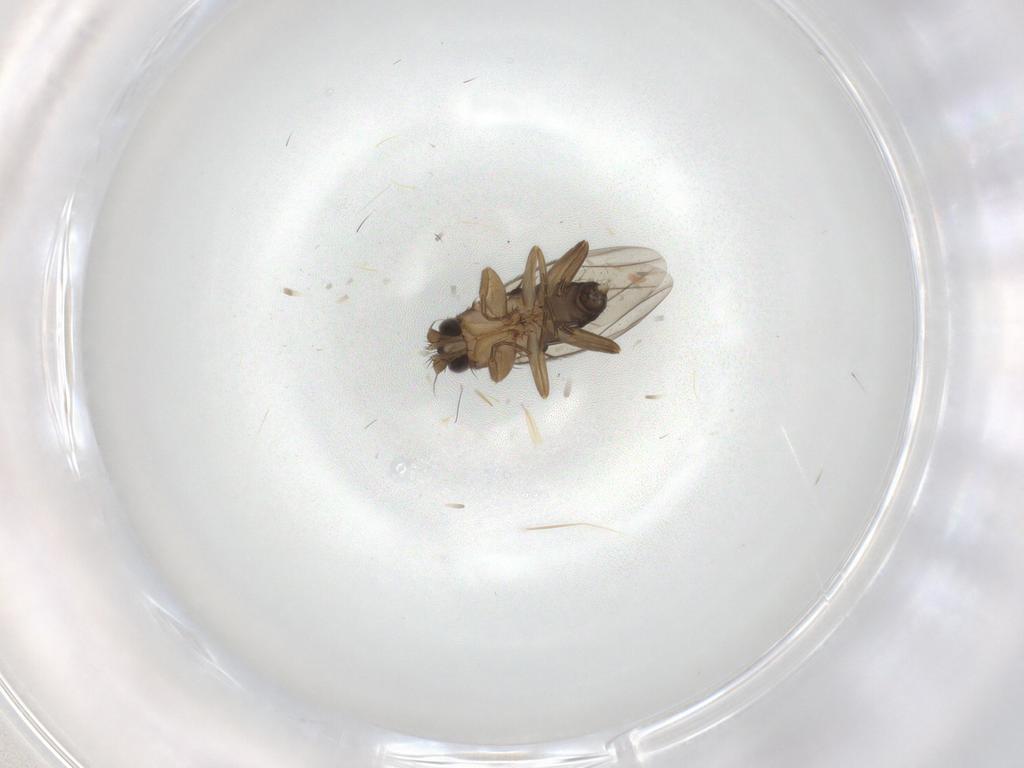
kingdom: Animalia
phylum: Arthropoda
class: Insecta
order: Diptera
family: Phoridae
